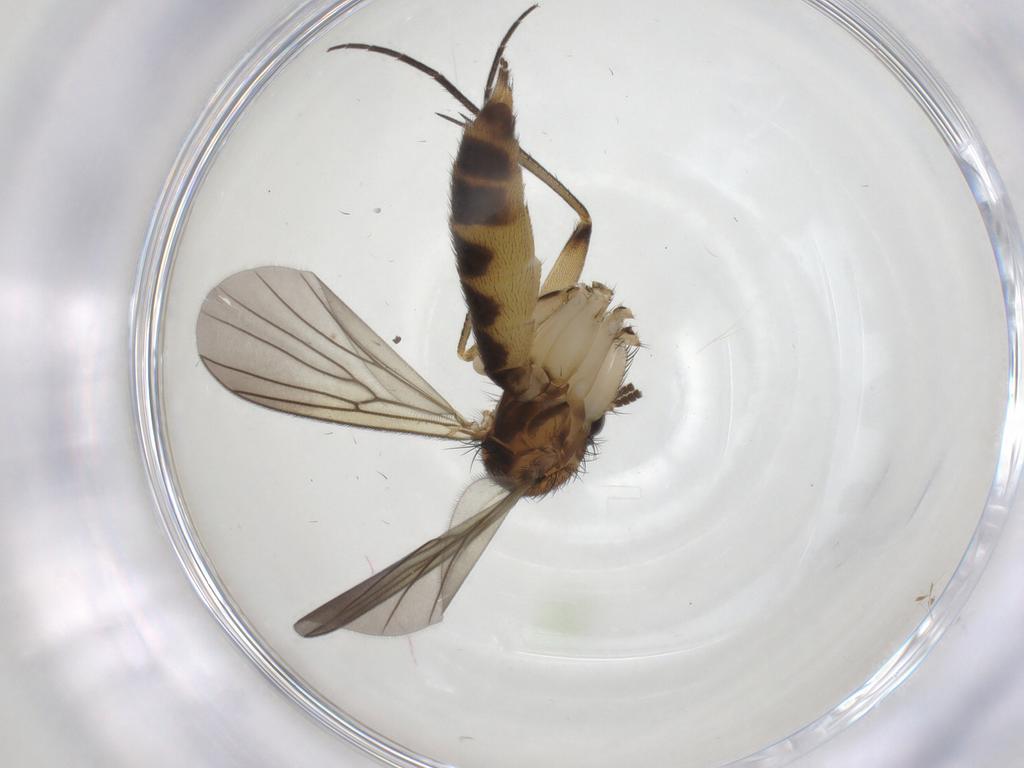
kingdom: Animalia
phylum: Arthropoda
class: Insecta
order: Diptera
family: Mycetophilidae
